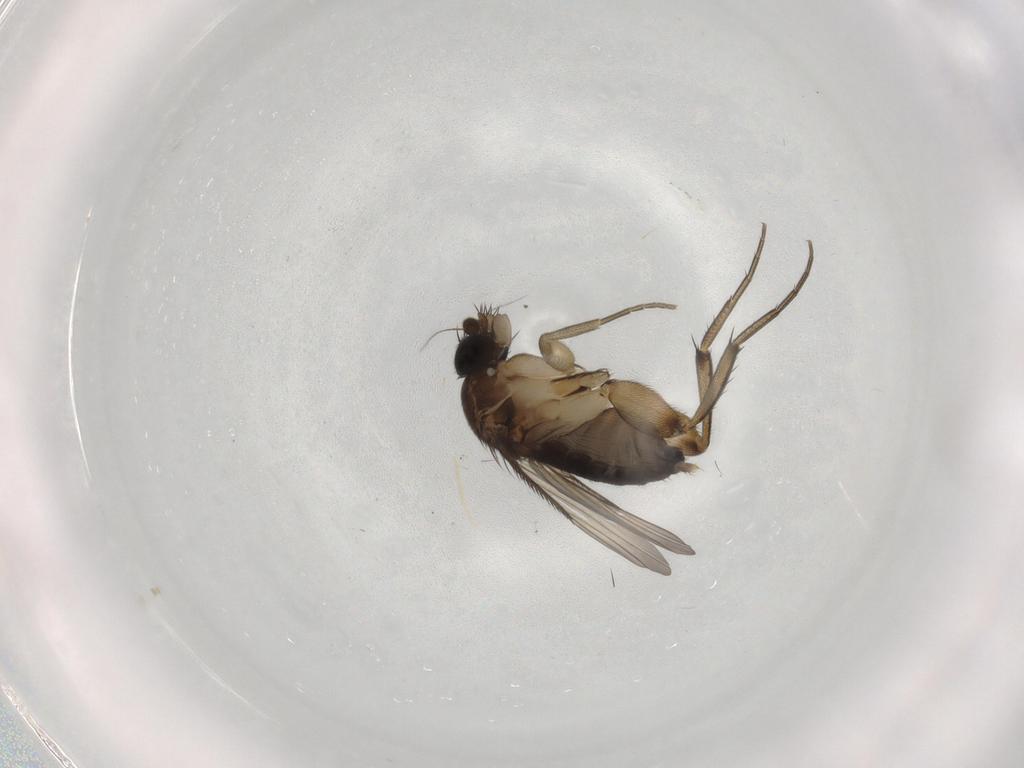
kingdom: Animalia
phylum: Arthropoda
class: Insecta
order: Diptera
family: Phoridae
